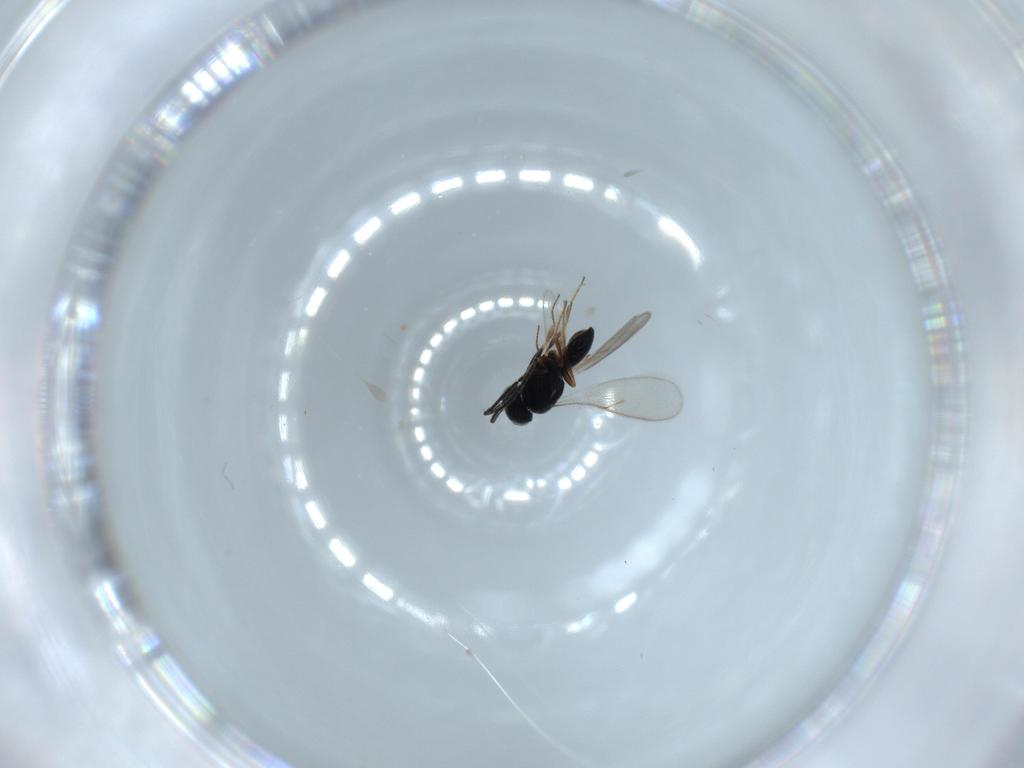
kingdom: Animalia
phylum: Arthropoda
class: Insecta
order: Hymenoptera
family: Scelionidae
